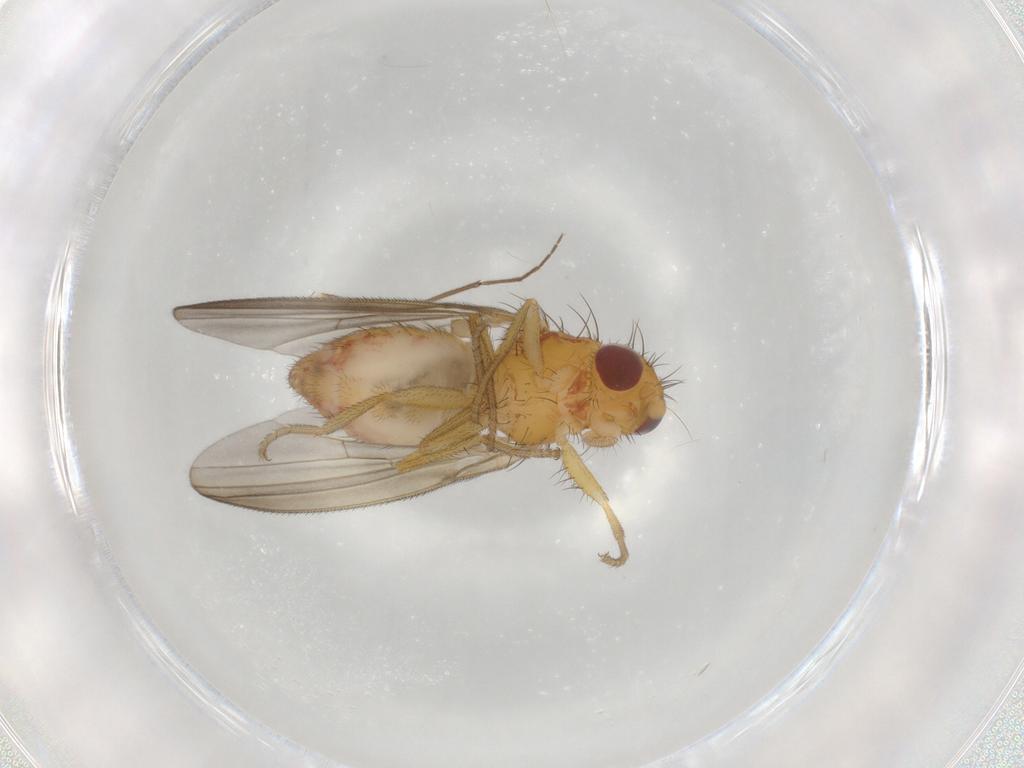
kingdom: Animalia
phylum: Arthropoda
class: Insecta
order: Diptera
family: Natalimyzidae
